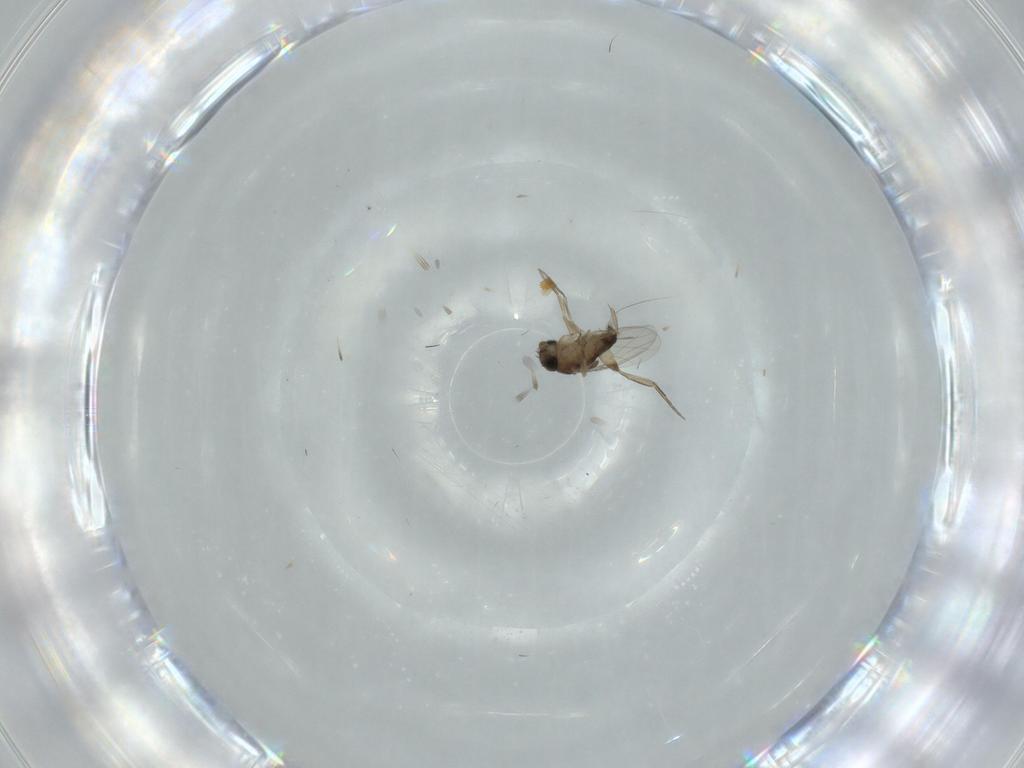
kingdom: Animalia
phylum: Arthropoda
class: Insecta
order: Diptera
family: Phoridae
